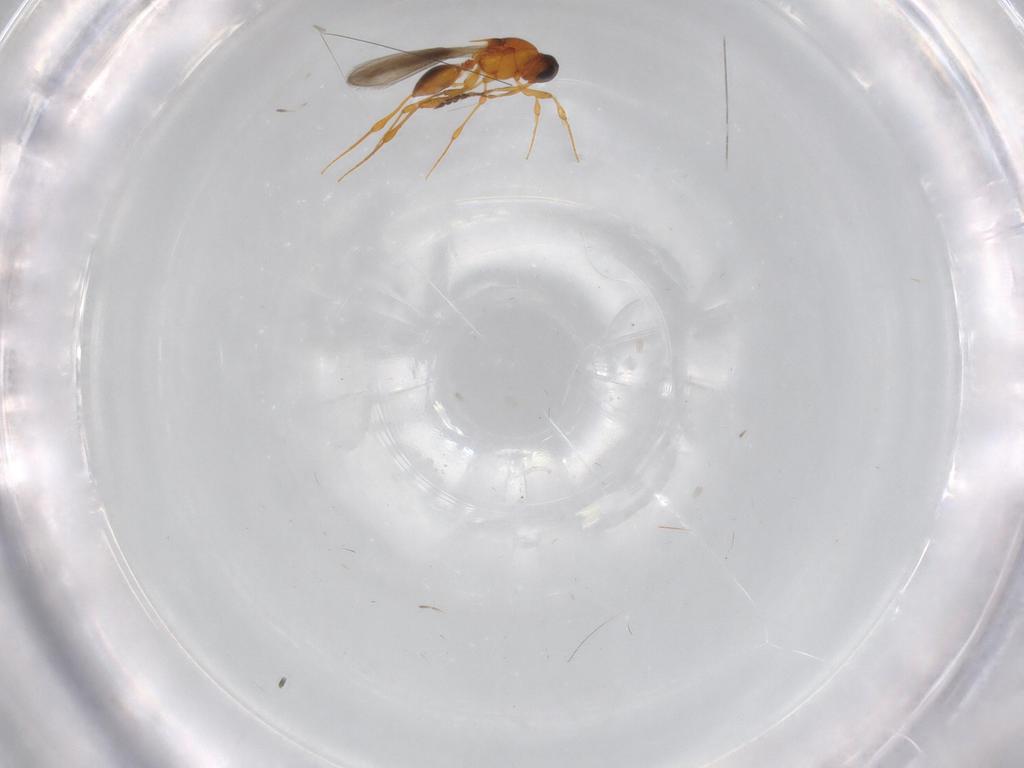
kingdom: Animalia
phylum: Arthropoda
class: Insecta
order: Hymenoptera
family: Platygastridae
